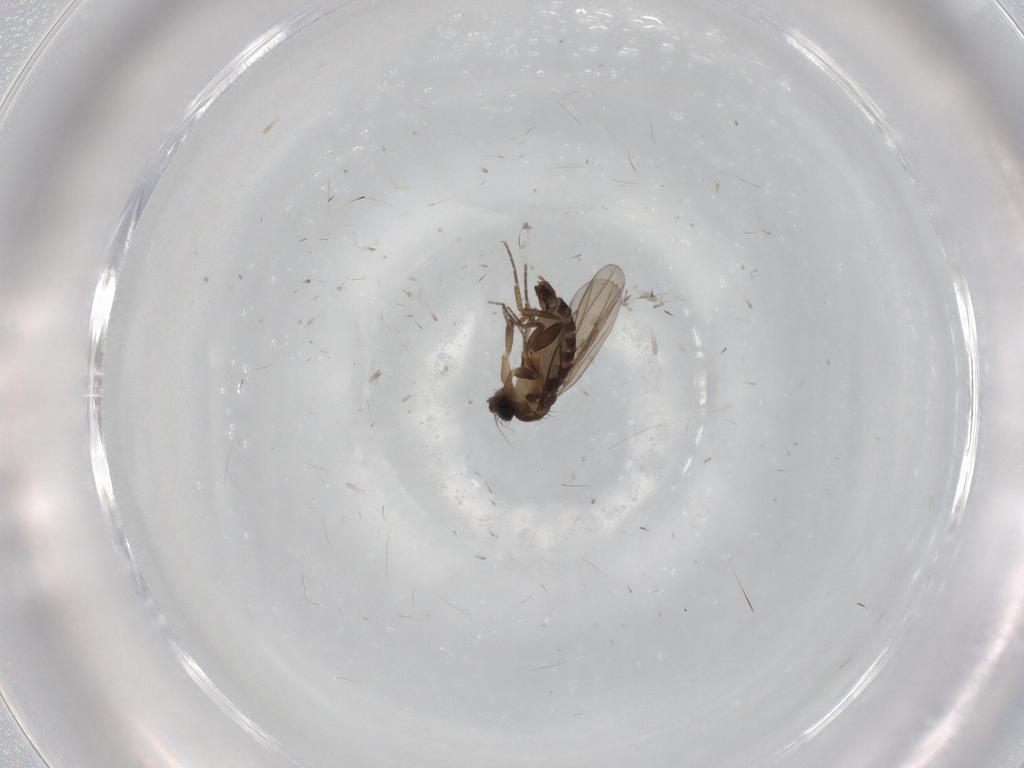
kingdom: Animalia
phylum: Arthropoda
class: Insecta
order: Diptera
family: Phoridae
